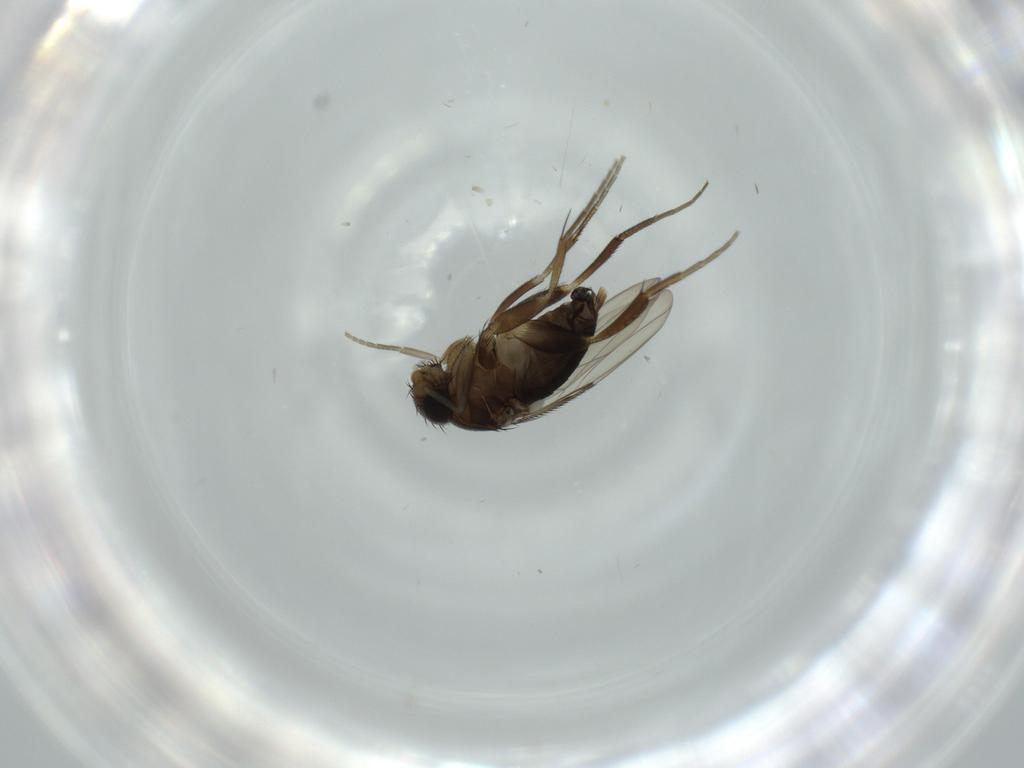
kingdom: Animalia
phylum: Arthropoda
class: Insecta
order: Diptera
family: Phoridae
